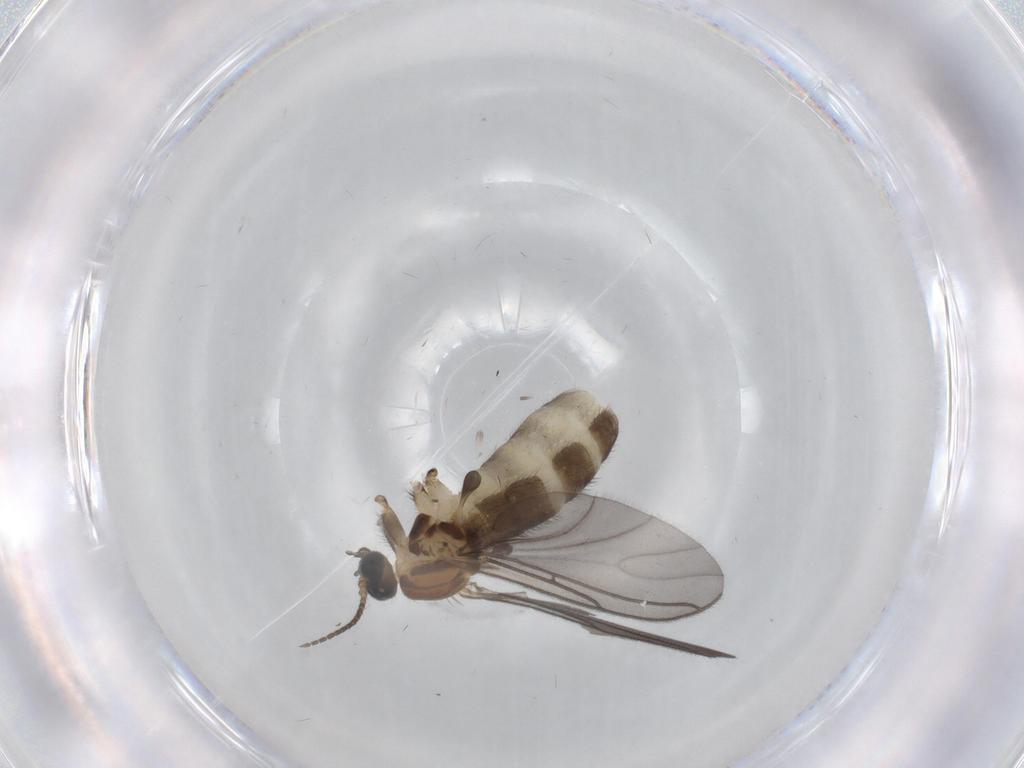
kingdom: Animalia
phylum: Arthropoda
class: Insecta
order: Diptera
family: Sciaridae
